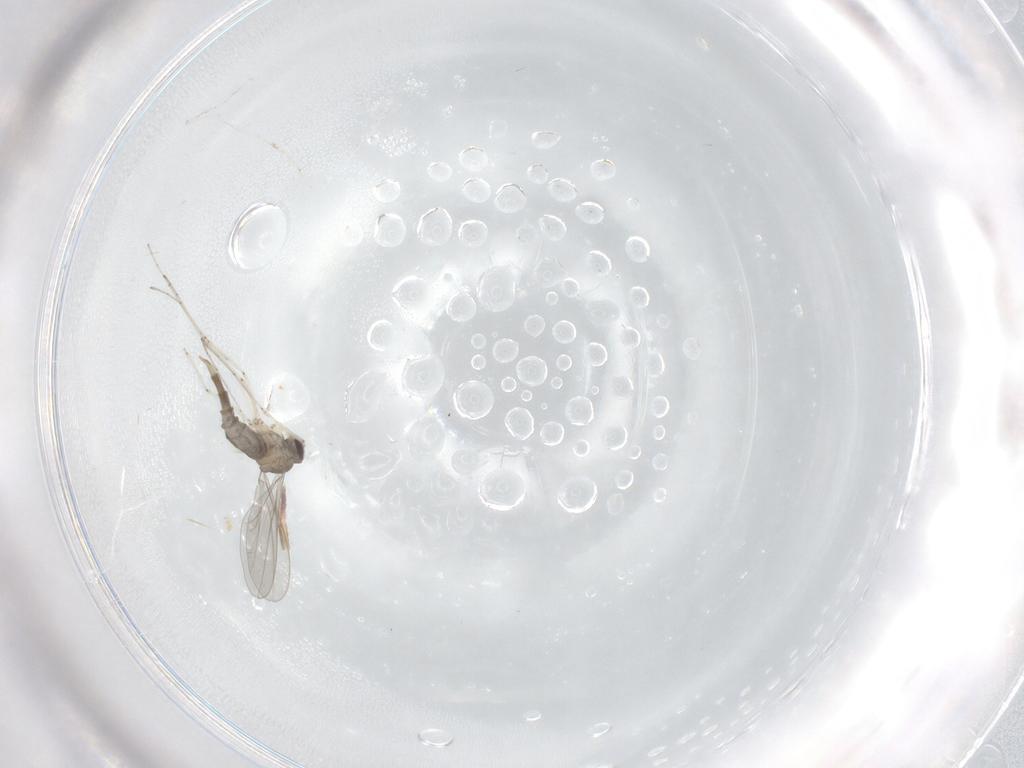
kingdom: Animalia
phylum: Arthropoda
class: Insecta
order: Diptera
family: Cecidomyiidae
